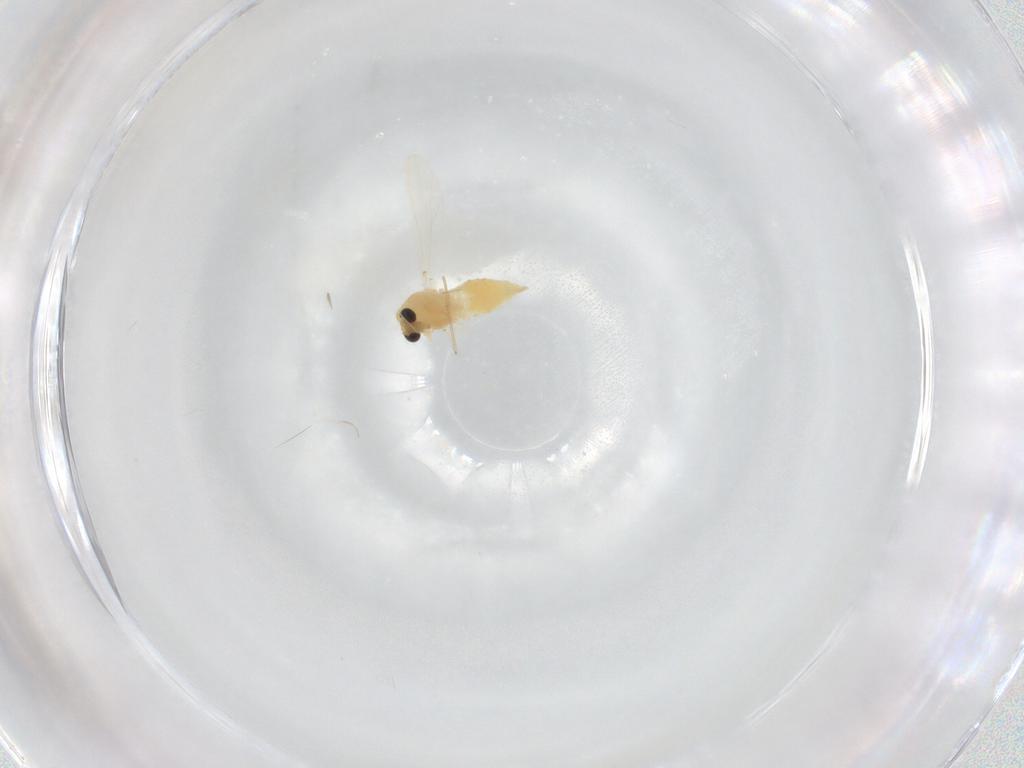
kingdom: Animalia
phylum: Arthropoda
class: Insecta
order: Diptera
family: Chironomidae
